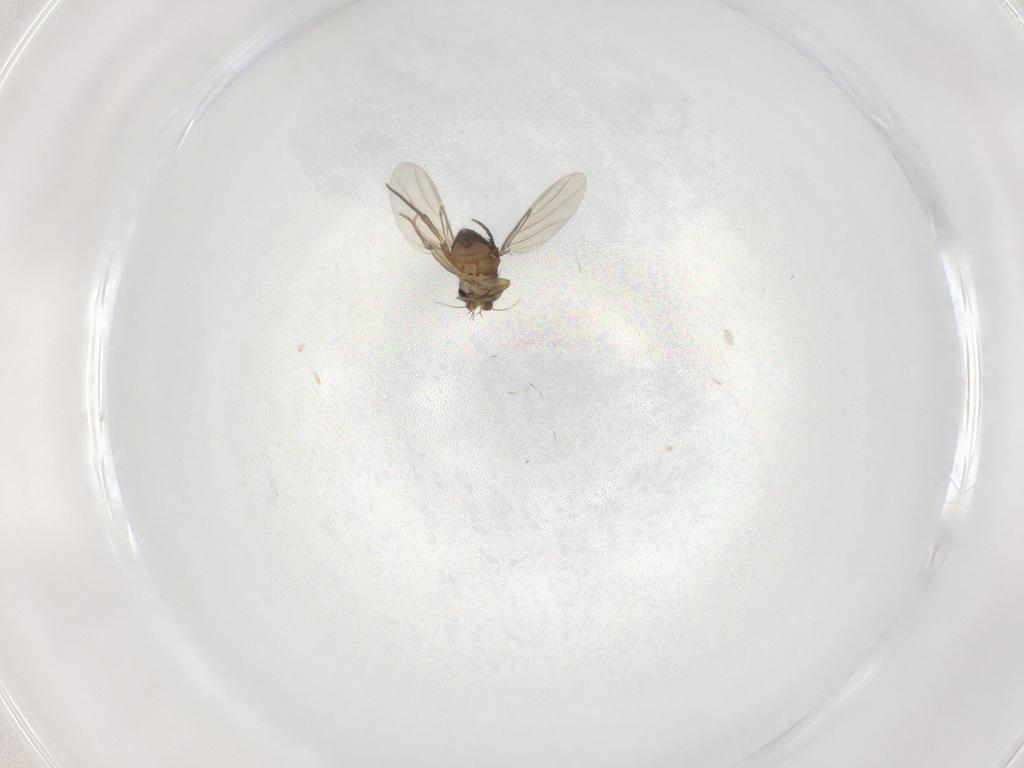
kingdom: Animalia
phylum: Arthropoda
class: Insecta
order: Diptera
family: Phoridae
